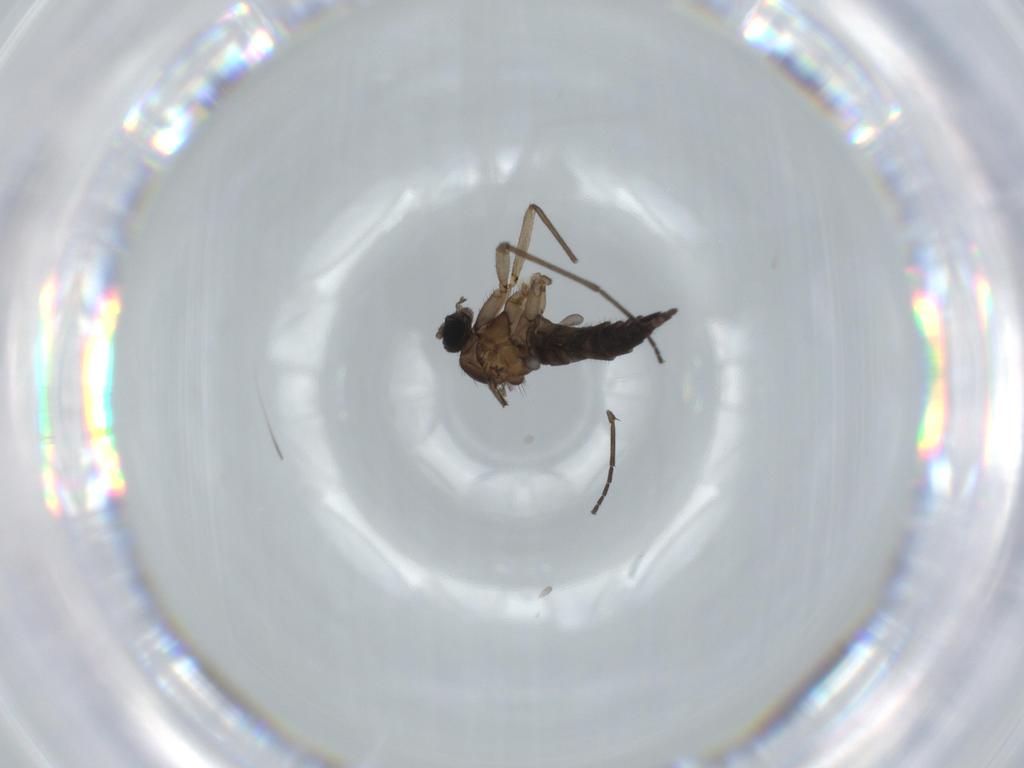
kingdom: Animalia
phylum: Arthropoda
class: Insecta
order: Diptera
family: Sciaridae
